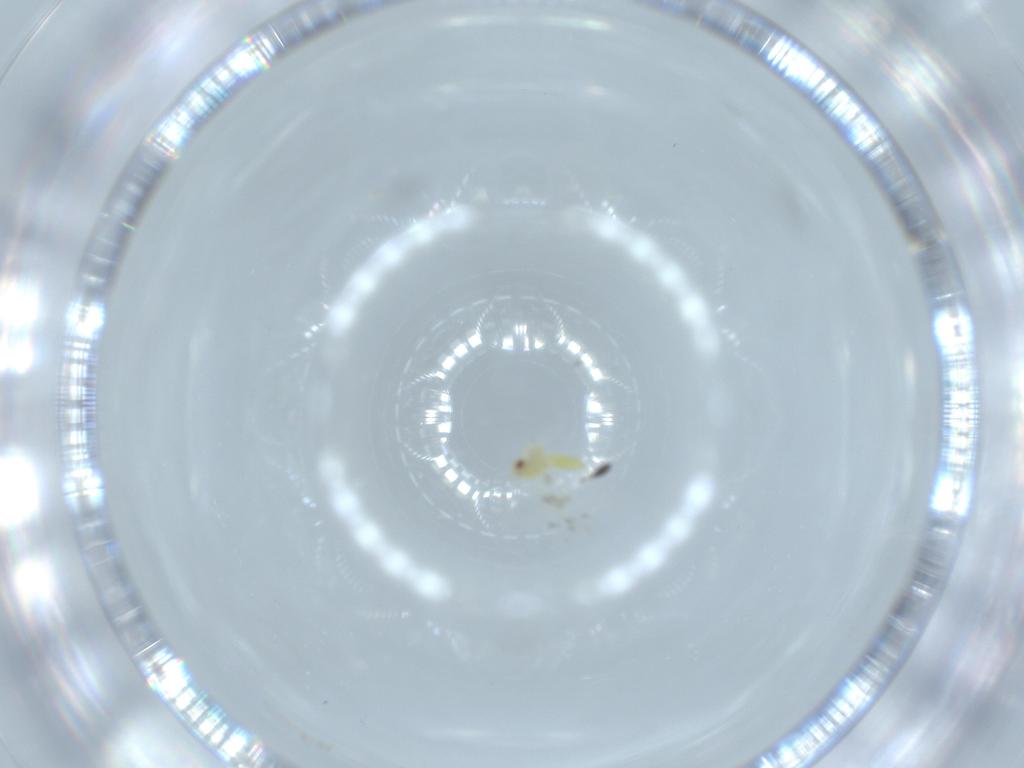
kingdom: Animalia
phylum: Arthropoda
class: Insecta
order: Hemiptera
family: Aleyrodidae
